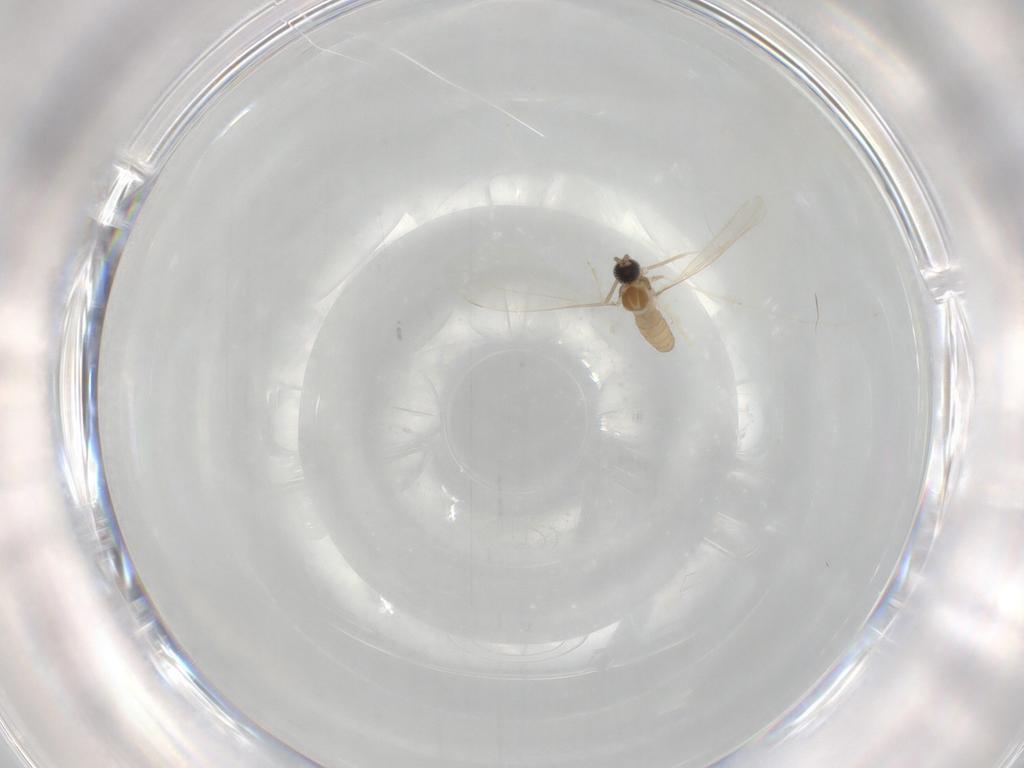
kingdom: Animalia
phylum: Arthropoda
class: Insecta
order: Diptera
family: Cecidomyiidae
